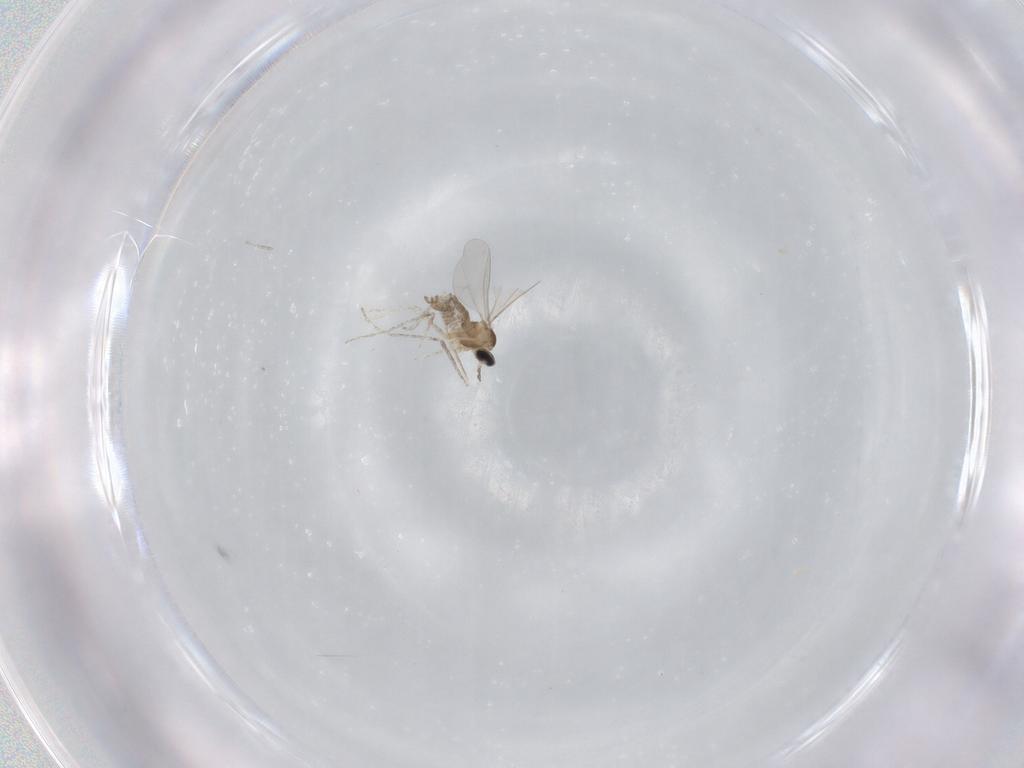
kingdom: Animalia
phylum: Arthropoda
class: Insecta
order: Diptera
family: Cecidomyiidae
